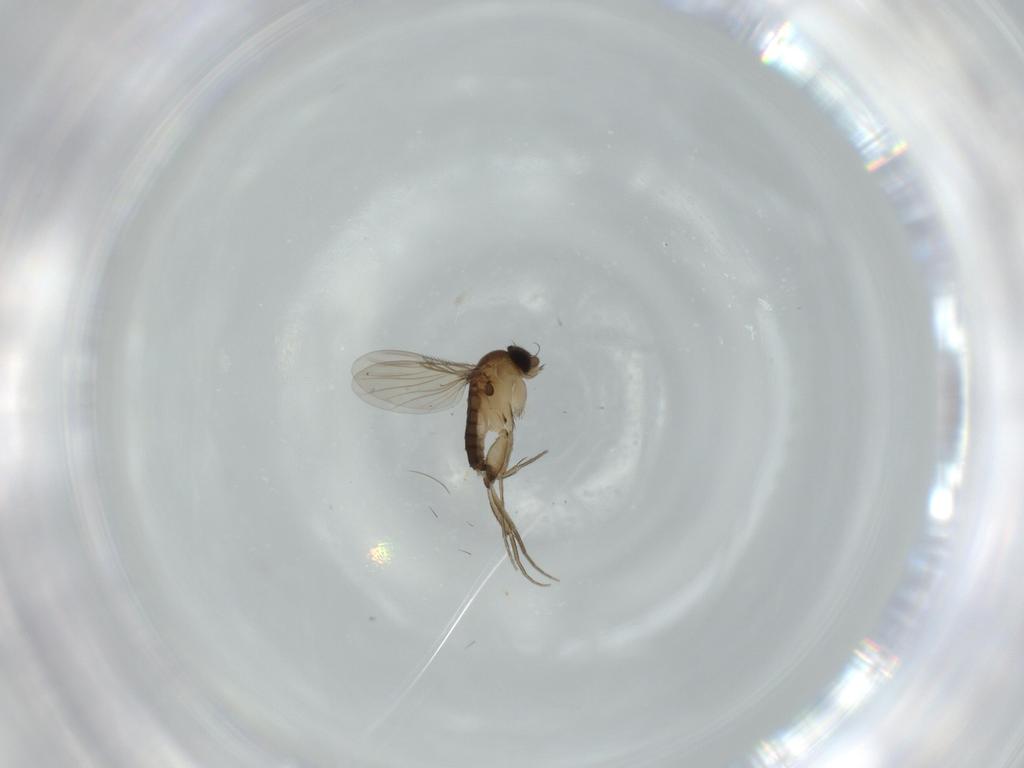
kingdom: Animalia
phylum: Arthropoda
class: Insecta
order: Diptera
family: Phoridae
